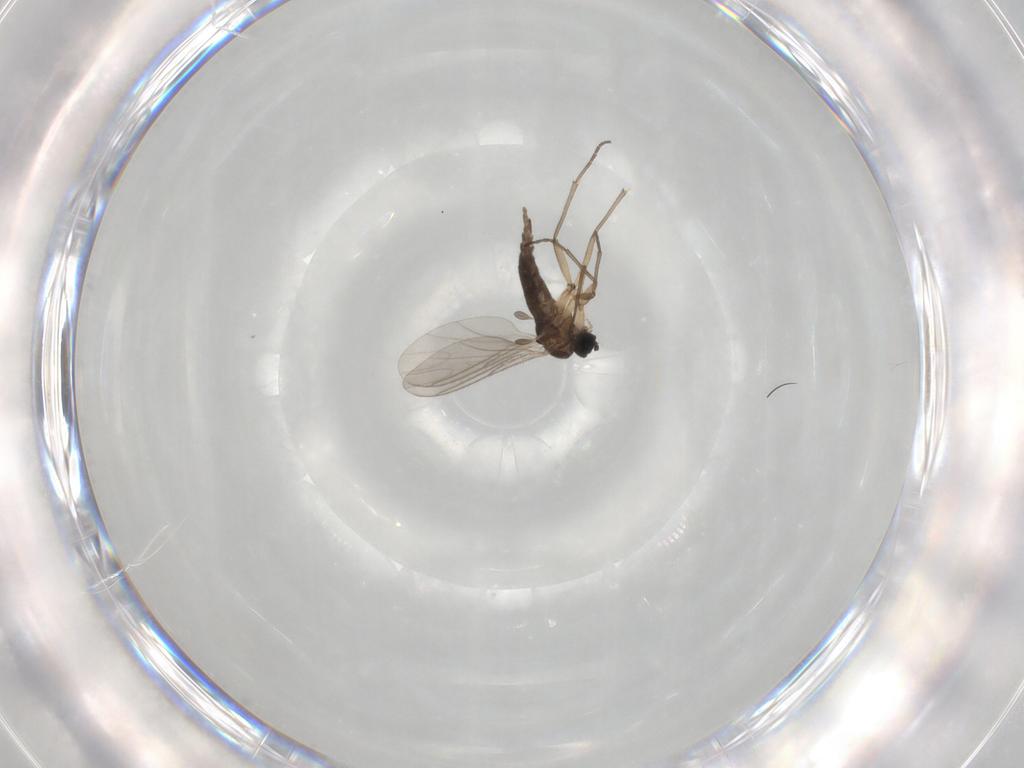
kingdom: Animalia
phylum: Arthropoda
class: Insecta
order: Diptera
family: Sciaridae
